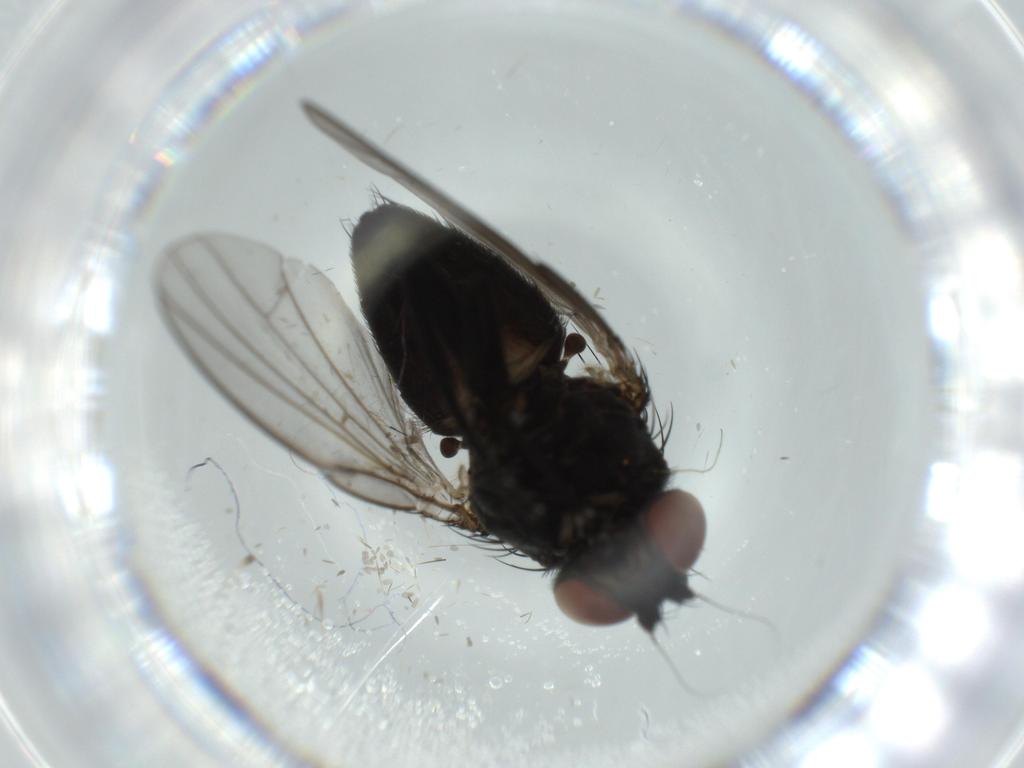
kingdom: Animalia
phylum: Arthropoda
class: Insecta
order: Diptera
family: Milichiidae
